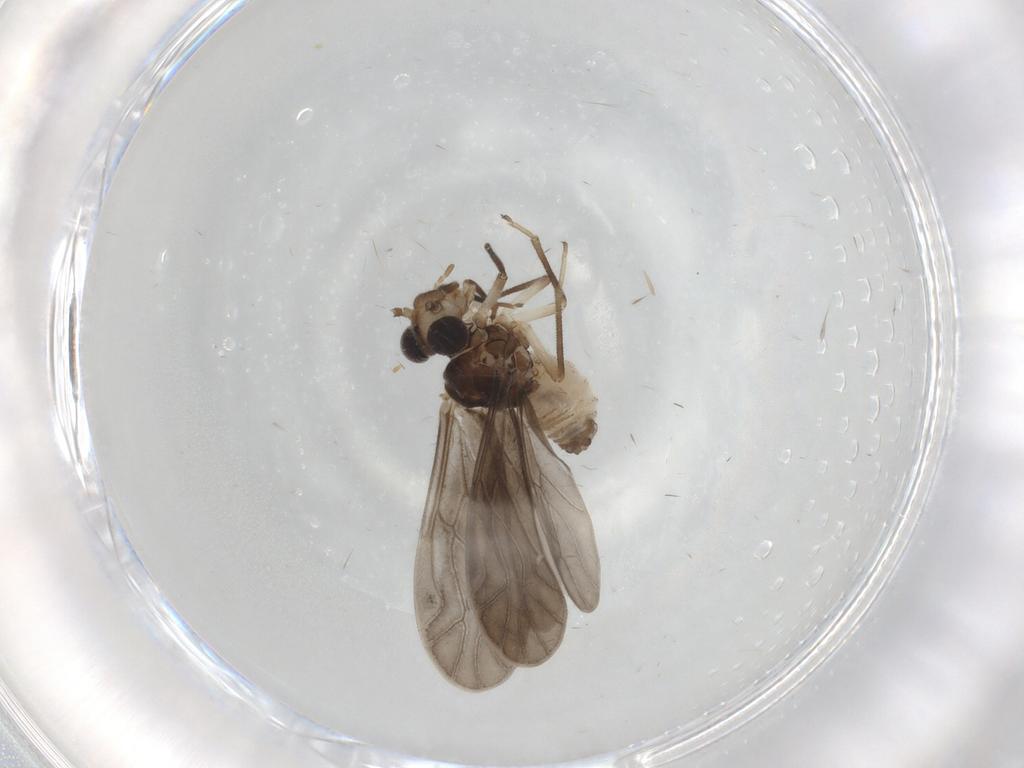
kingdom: Animalia
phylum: Arthropoda
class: Insecta
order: Psocodea
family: Caeciliusidae
